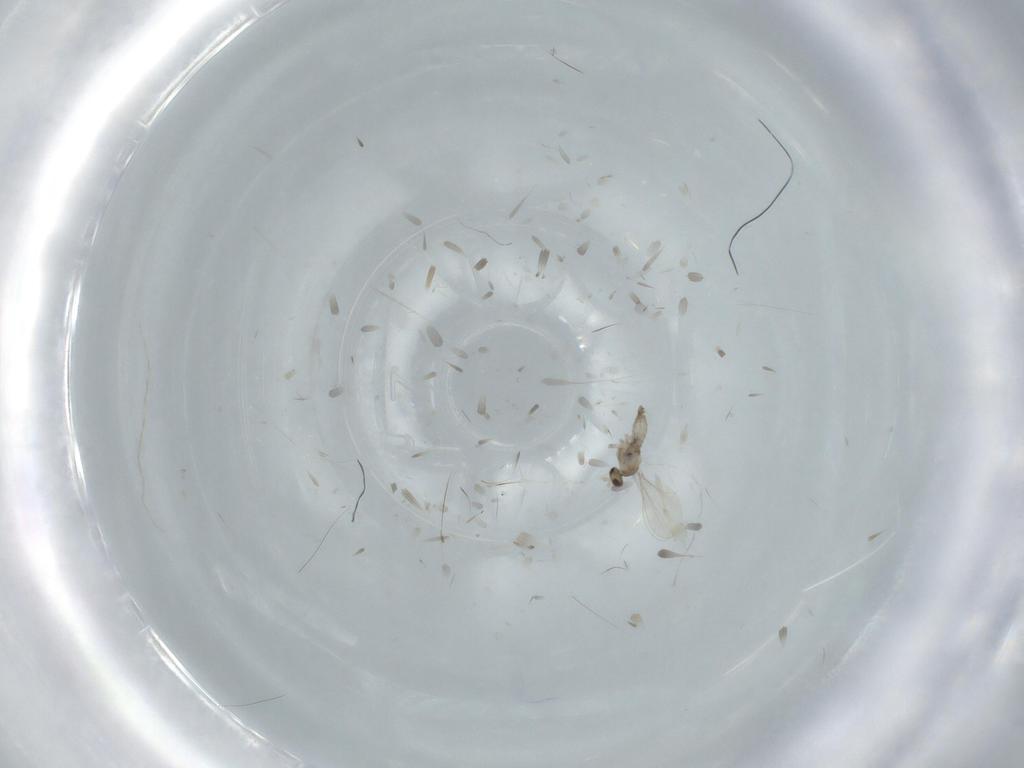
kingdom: Animalia
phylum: Arthropoda
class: Insecta
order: Diptera
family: Cecidomyiidae
